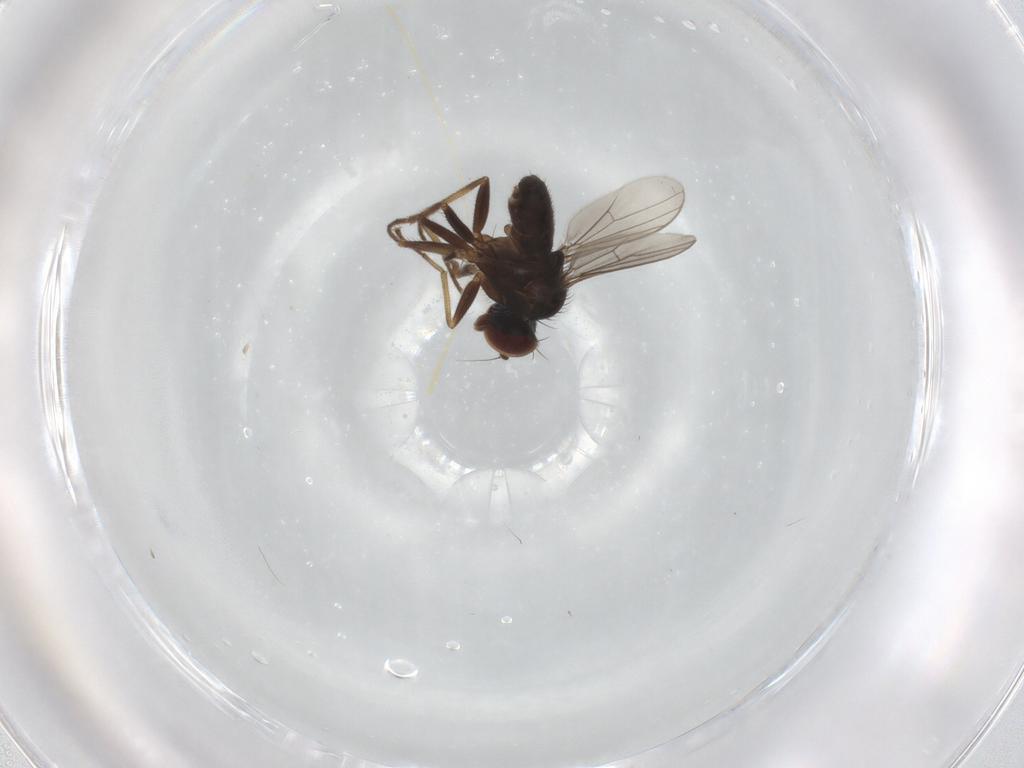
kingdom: Animalia
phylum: Arthropoda
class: Insecta
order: Diptera
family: Dolichopodidae
